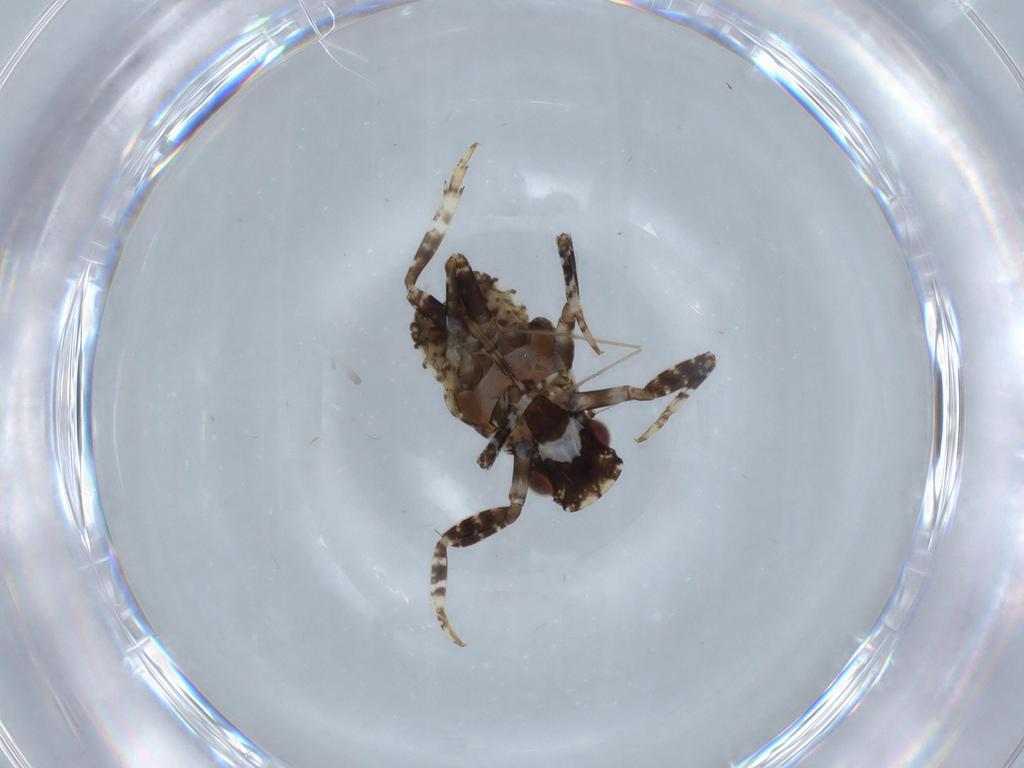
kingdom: Animalia
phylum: Arthropoda
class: Insecta
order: Hemiptera
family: Fulgoridae
